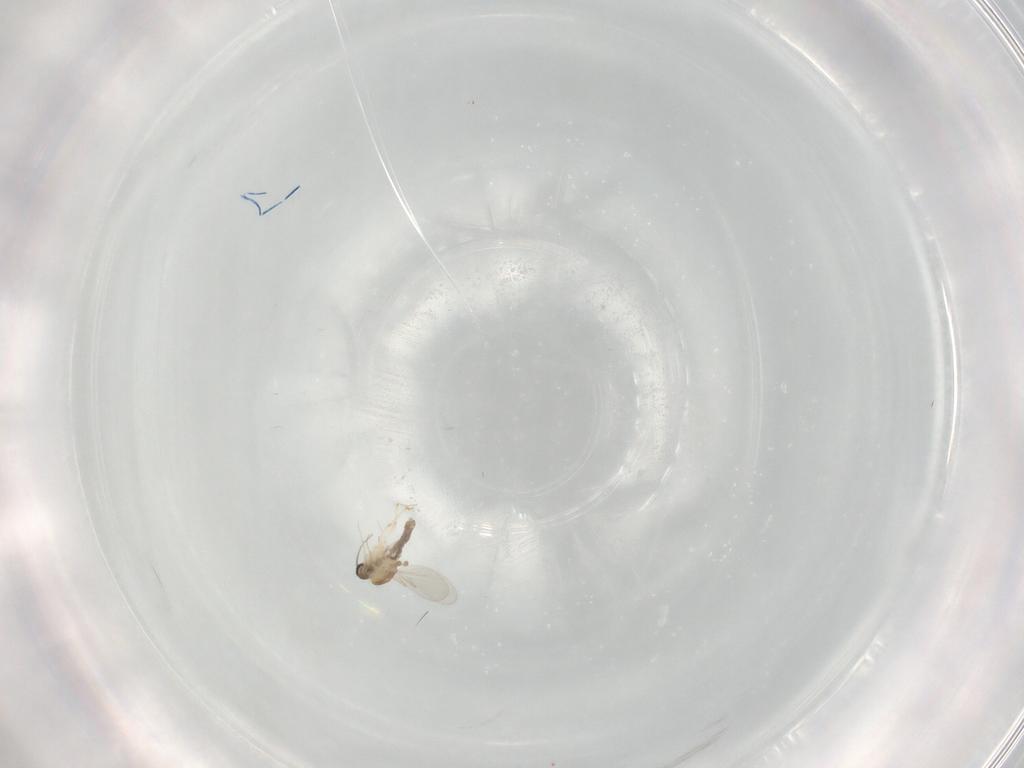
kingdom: Animalia
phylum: Arthropoda
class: Insecta
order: Diptera
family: Ceratopogonidae
